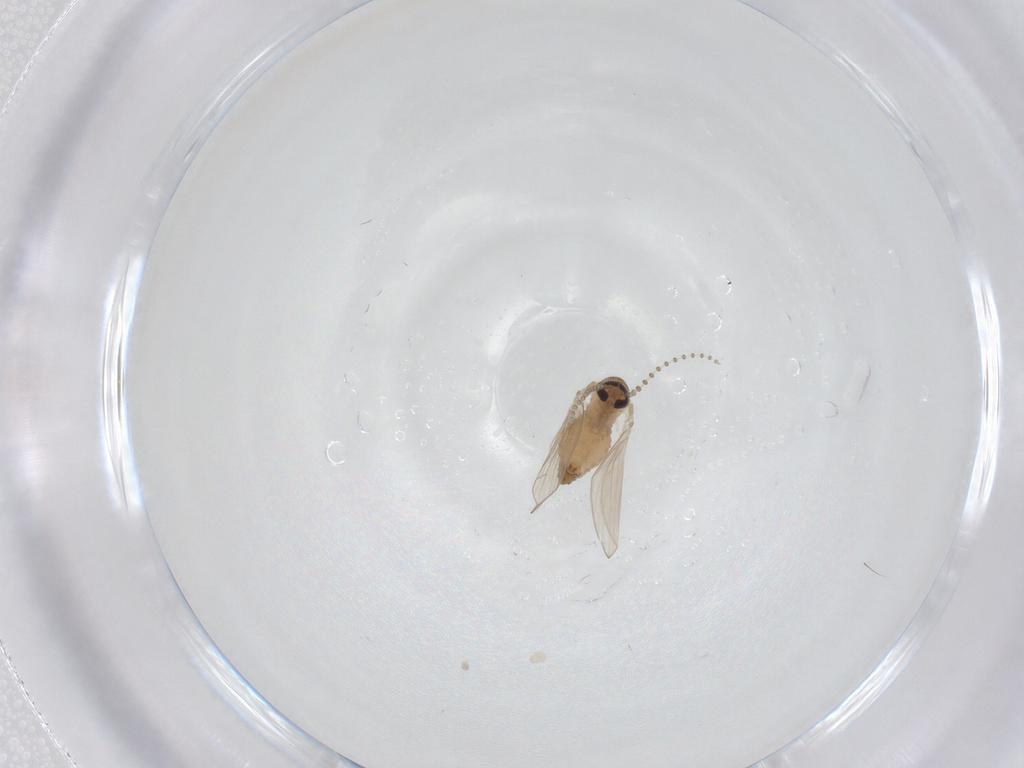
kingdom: Animalia
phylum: Arthropoda
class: Insecta
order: Diptera
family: Psychodidae
